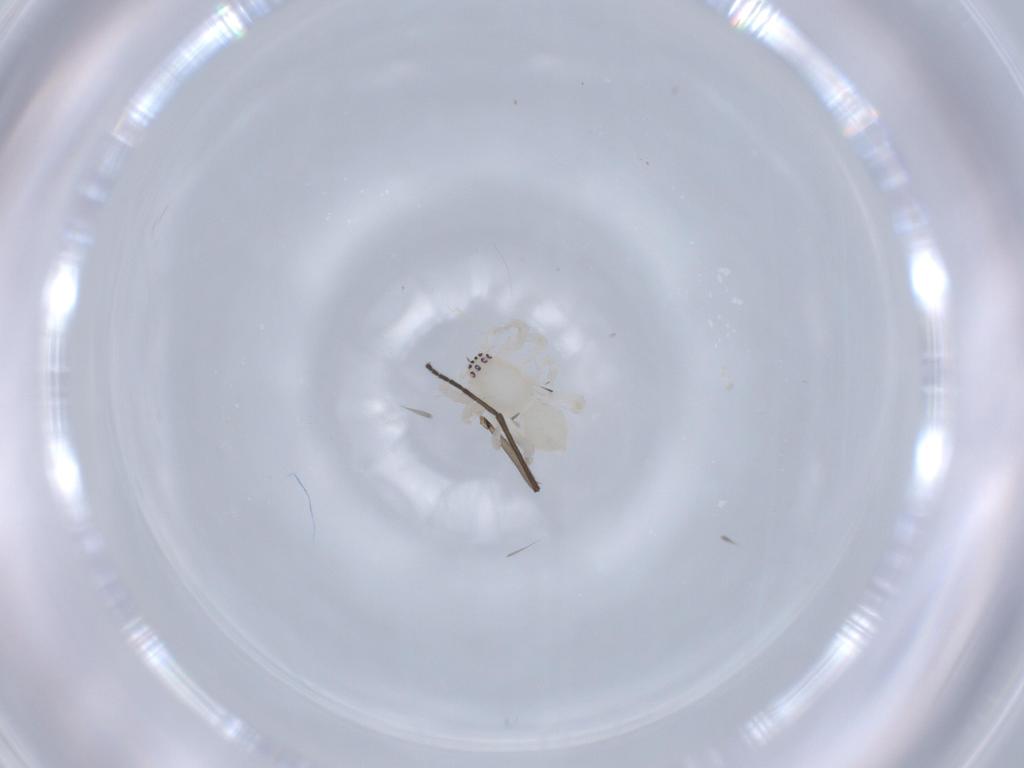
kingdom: Animalia
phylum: Arthropoda
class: Arachnida
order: Araneae
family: Anyphaenidae
